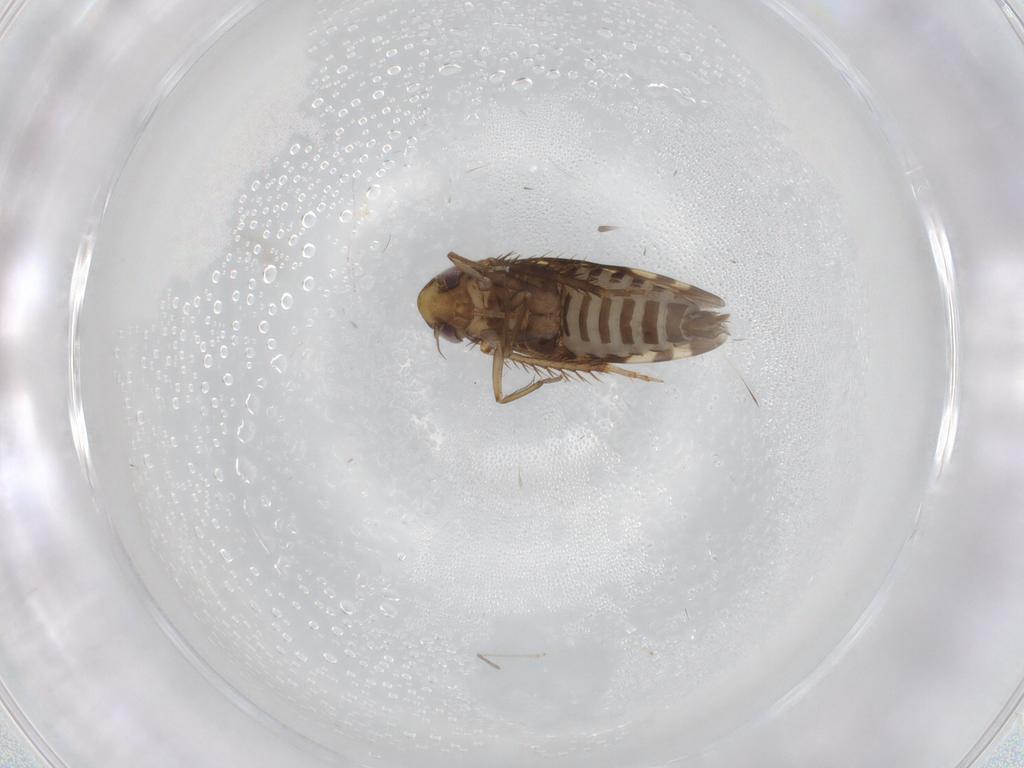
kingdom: Animalia
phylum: Arthropoda
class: Insecta
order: Hemiptera
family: Cicadellidae
